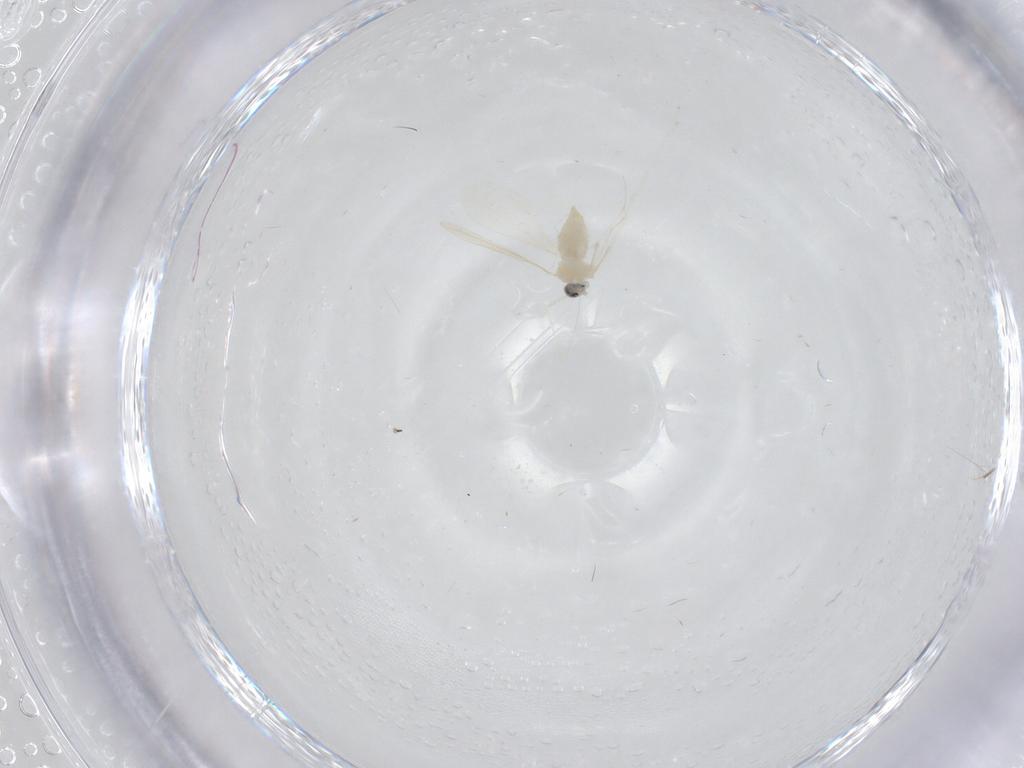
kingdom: Animalia
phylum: Arthropoda
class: Insecta
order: Diptera
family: Cecidomyiidae
